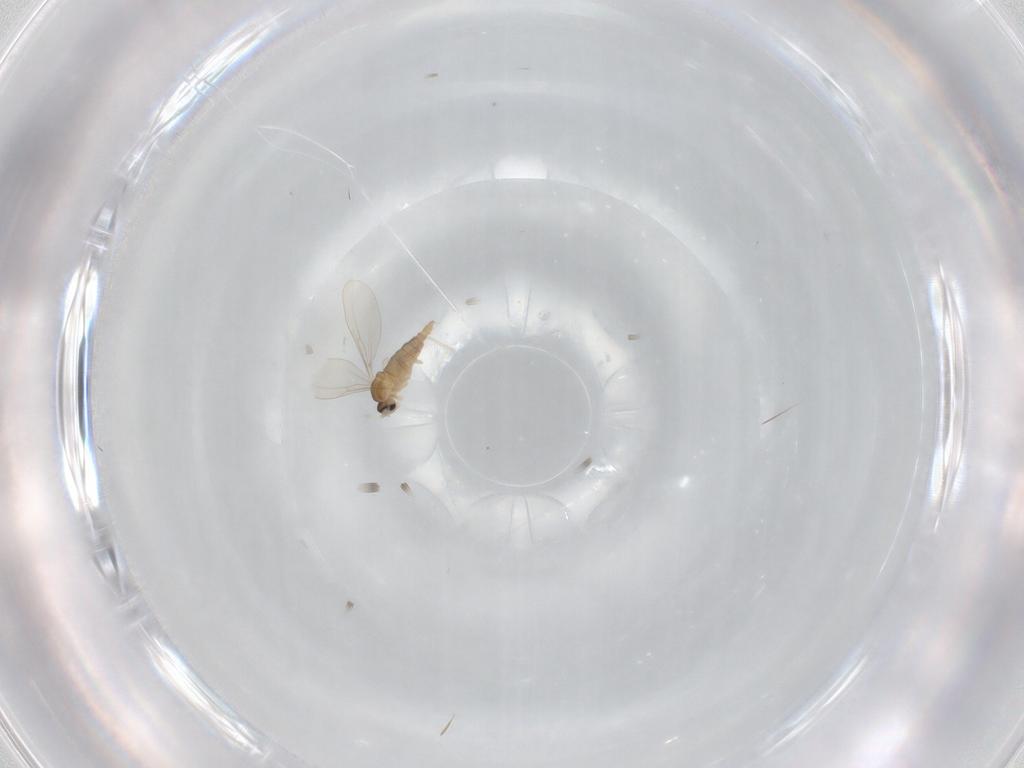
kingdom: Animalia
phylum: Arthropoda
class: Insecta
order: Diptera
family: Cecidomyiidae
